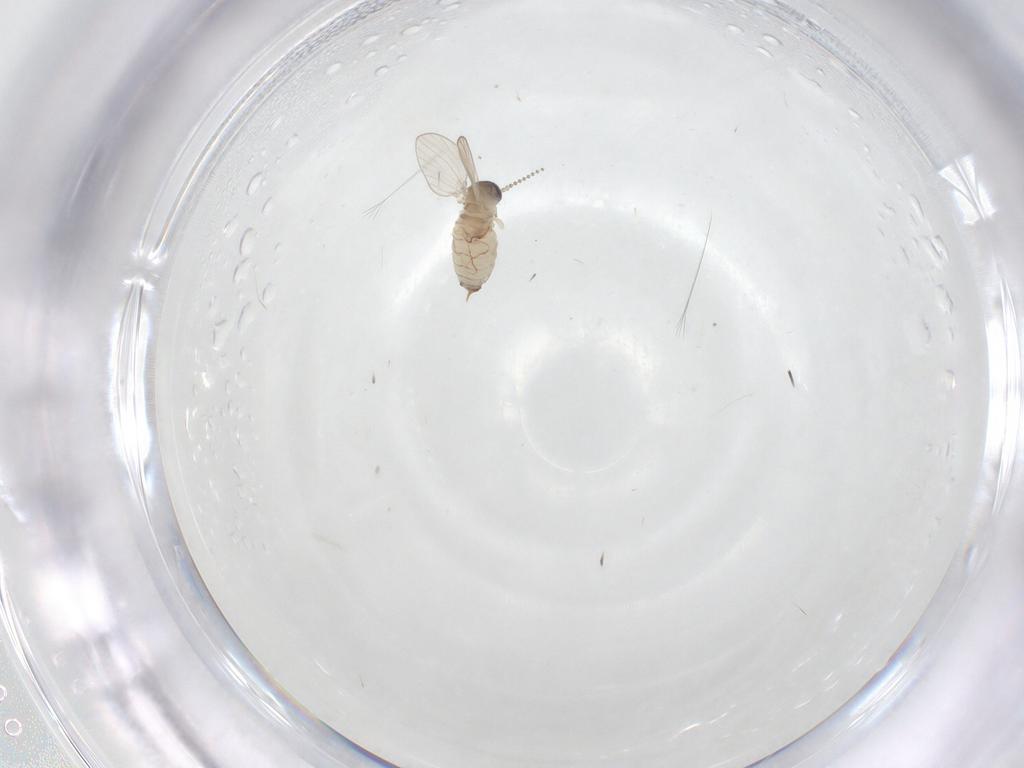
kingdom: Animalia
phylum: Arthropoda
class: Insecta
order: Diptera
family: Psychodidae
